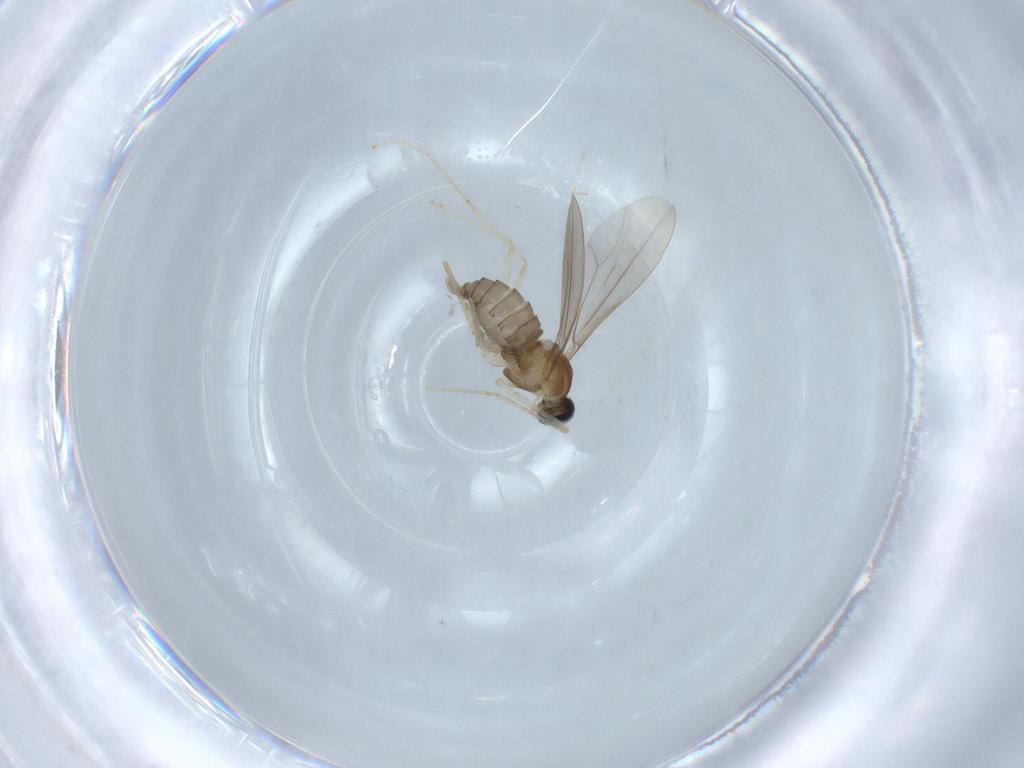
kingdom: Animalia
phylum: Arthropoda
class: Insecta
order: Diptera
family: Cecidomyiidae
